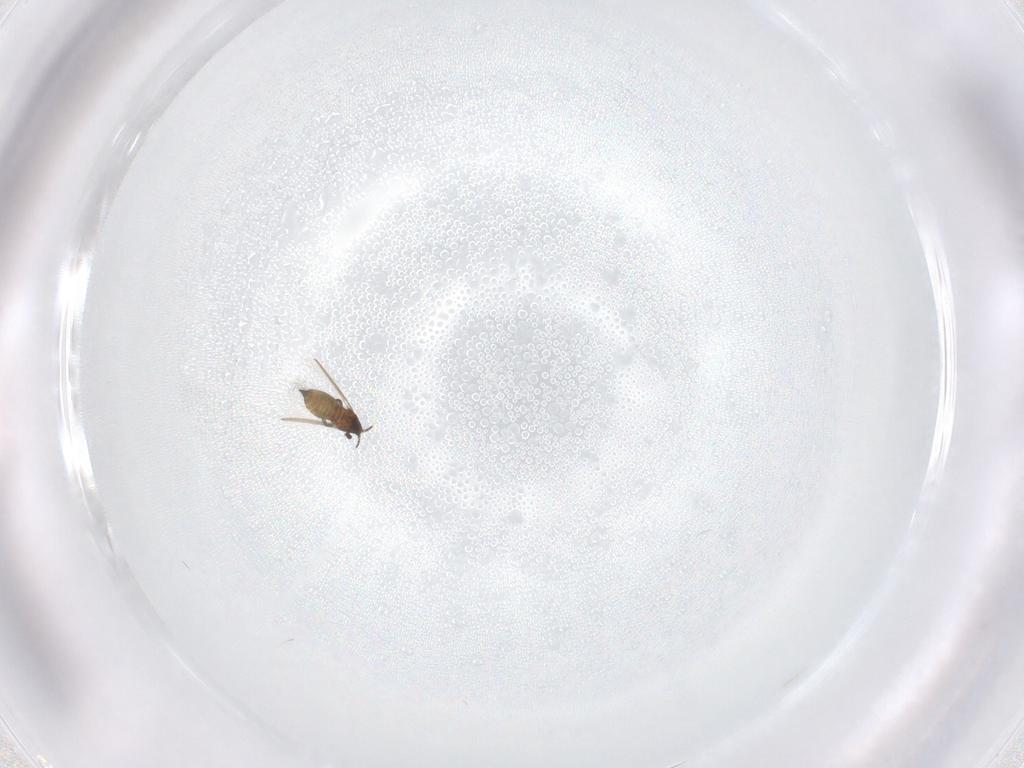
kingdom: Animalia
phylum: Arthropoda
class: Insecta
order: Thysanoptera
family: Thripidae
